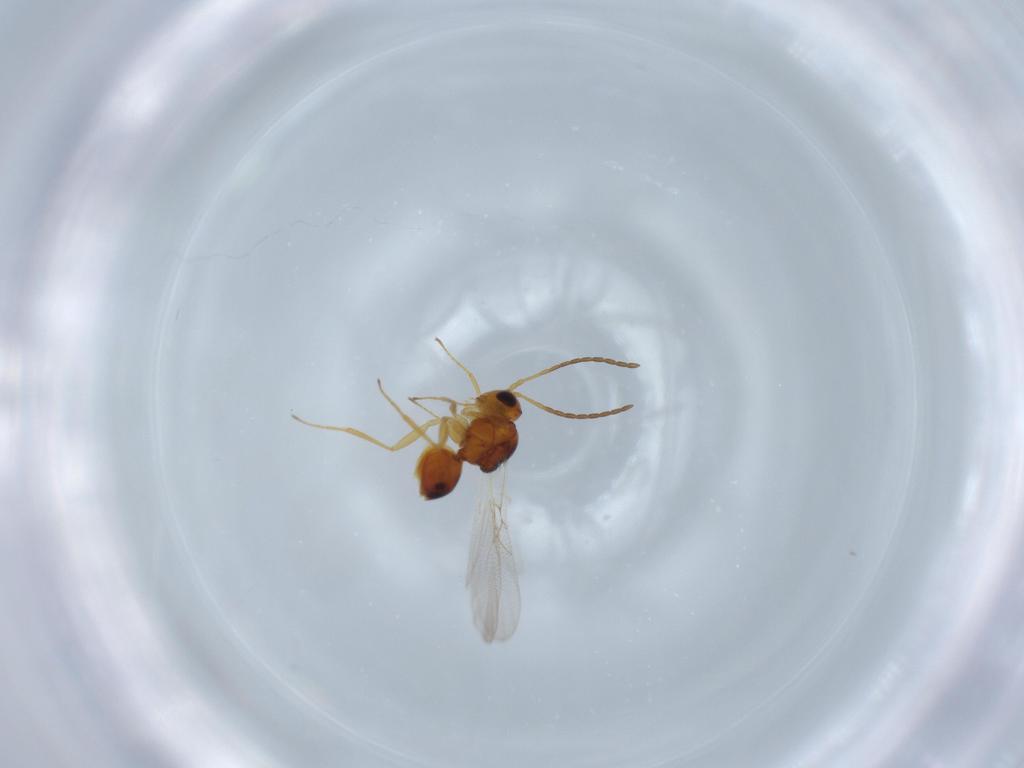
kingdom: Animalia
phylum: Arthropoda
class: Insecta
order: Hymenoptera
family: Figitidae
